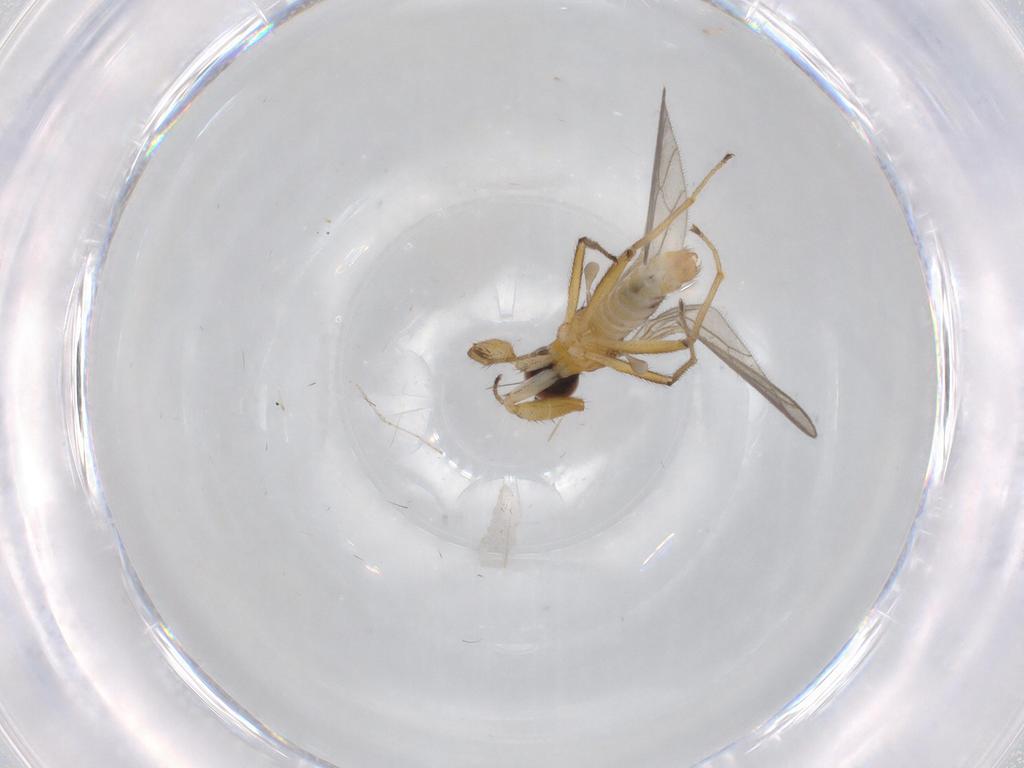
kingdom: Animalia
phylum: Arthropoda
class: Insecta
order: Diptera
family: Empididae
